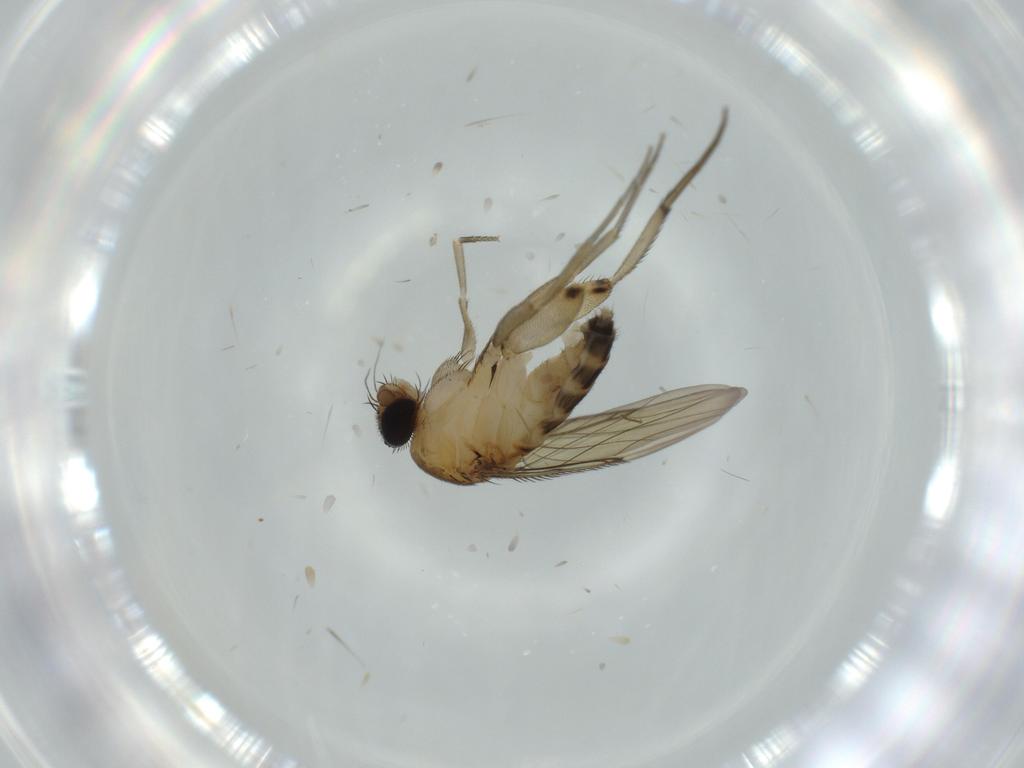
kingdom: Animalia
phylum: Arthropoda
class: Insecta
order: Diptera
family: Phoridae
